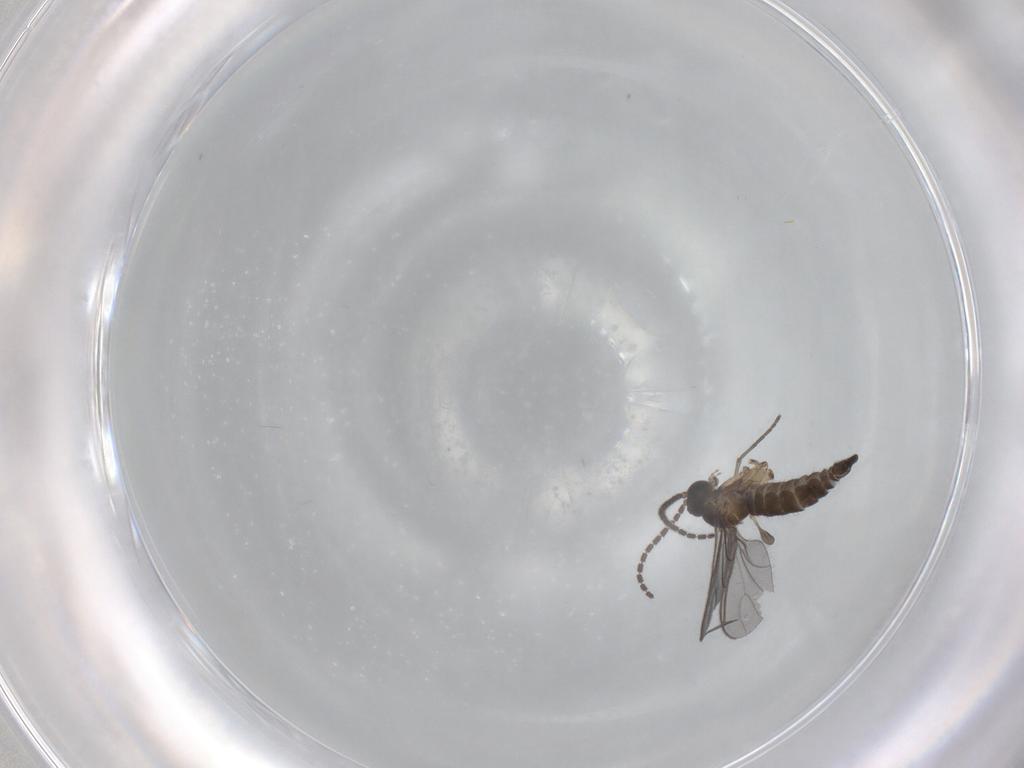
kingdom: Animalia
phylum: Arthropoda
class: Insecta
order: Diptera
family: Sciaridae
